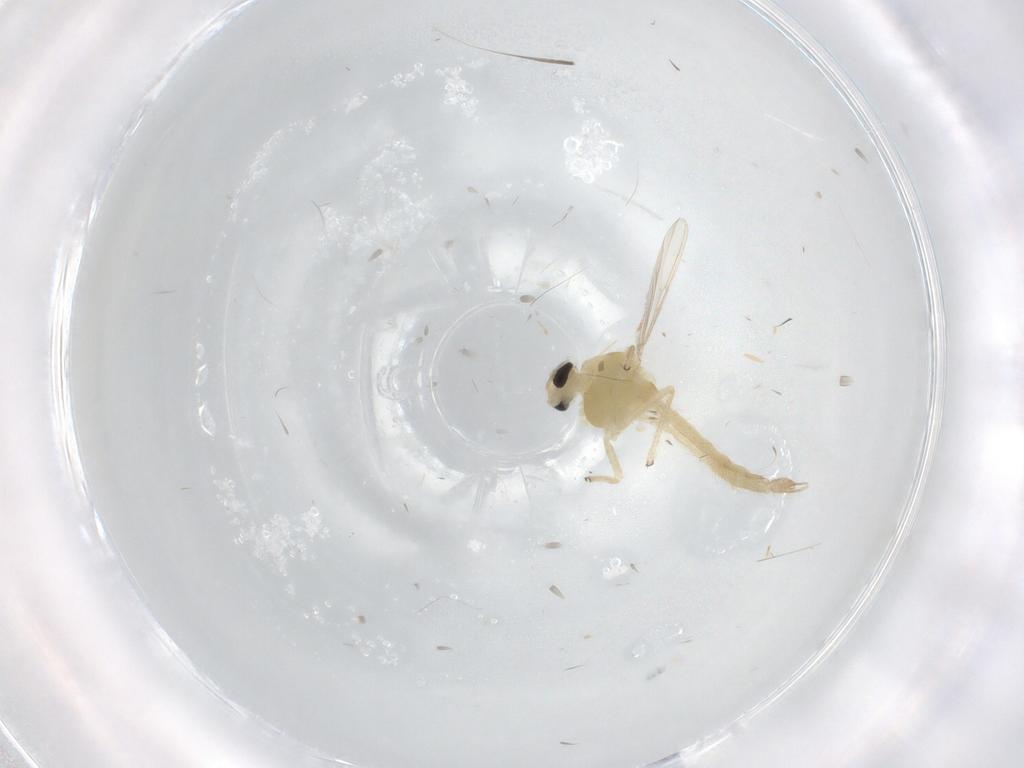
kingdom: Animalia
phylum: Arthropoda
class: Insecta
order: Diptera
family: Chironomidae
